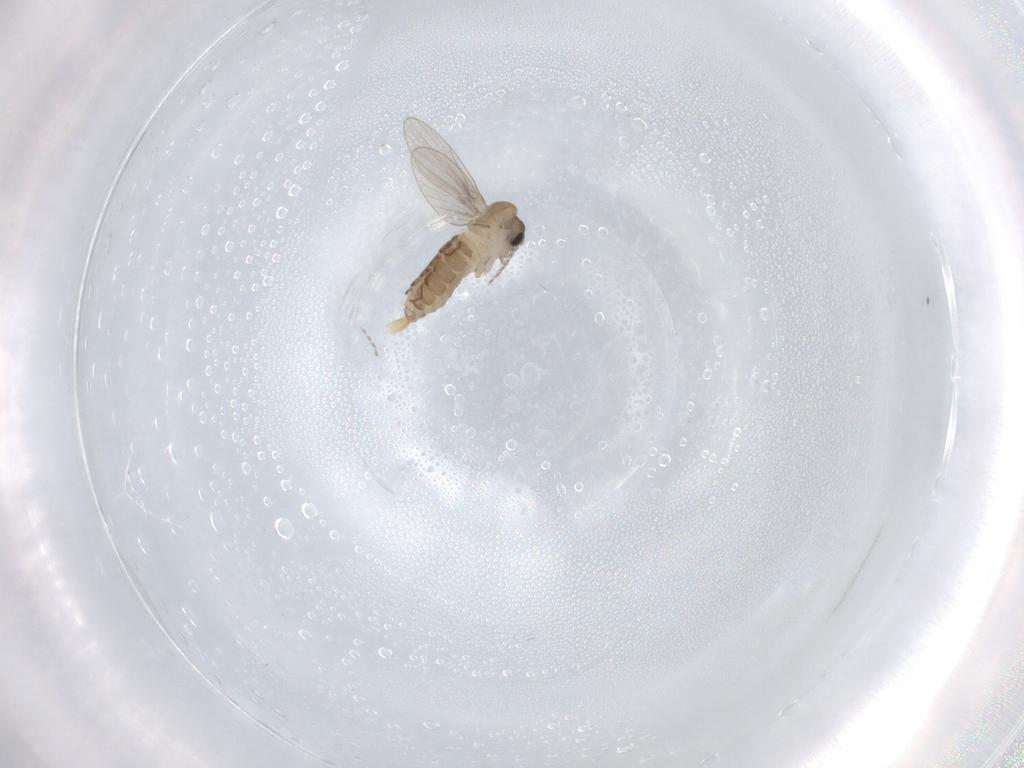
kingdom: Animalia
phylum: Arthropoda
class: Insecta
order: Diptera
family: Psychodidae
